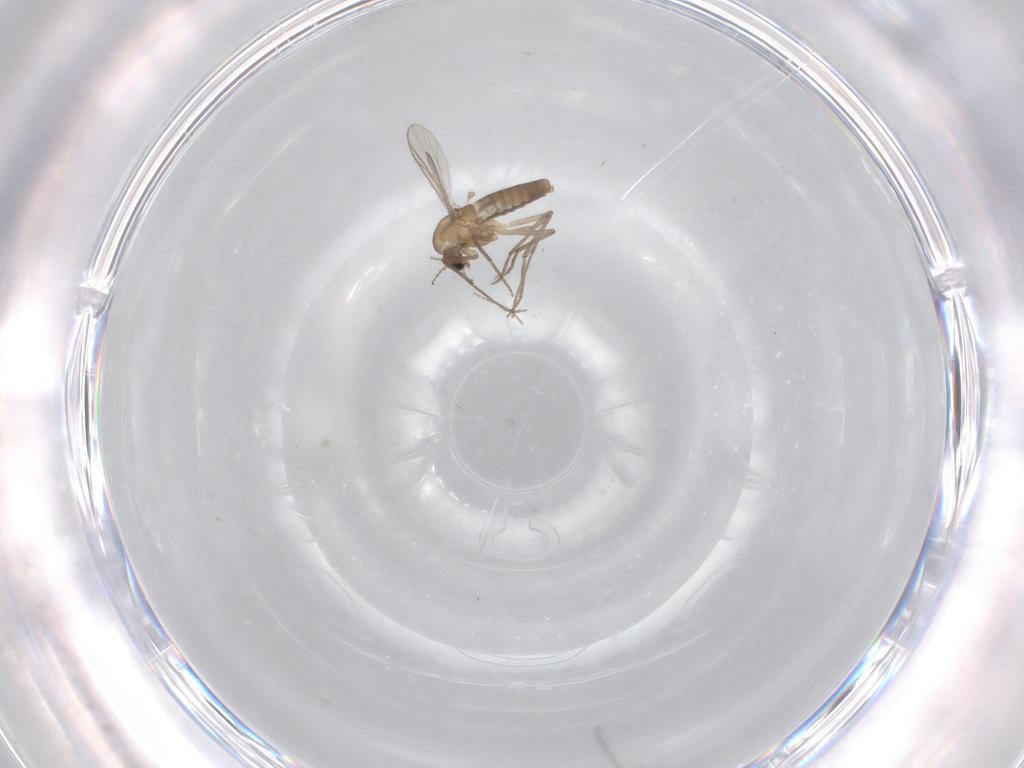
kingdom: Animalia
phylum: Arthropoda
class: Insecta
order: Diptera
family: Chironomidae
